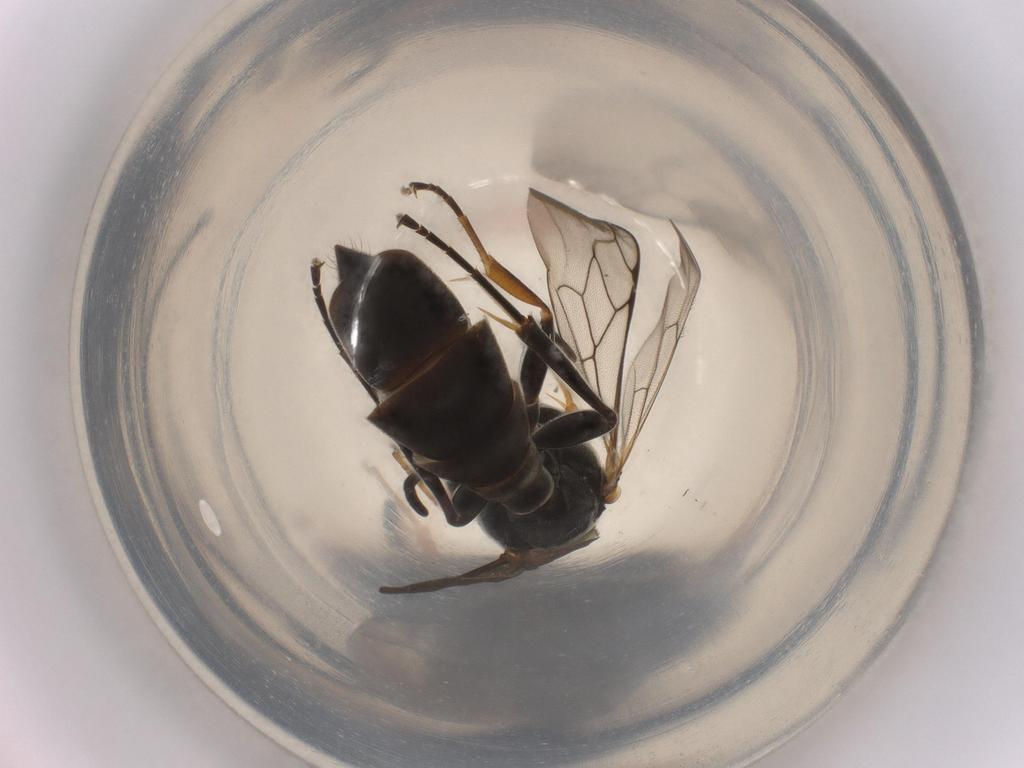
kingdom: Animalia
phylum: Arthropoda
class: Insecta
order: Hymenoptera
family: Crabronidae
